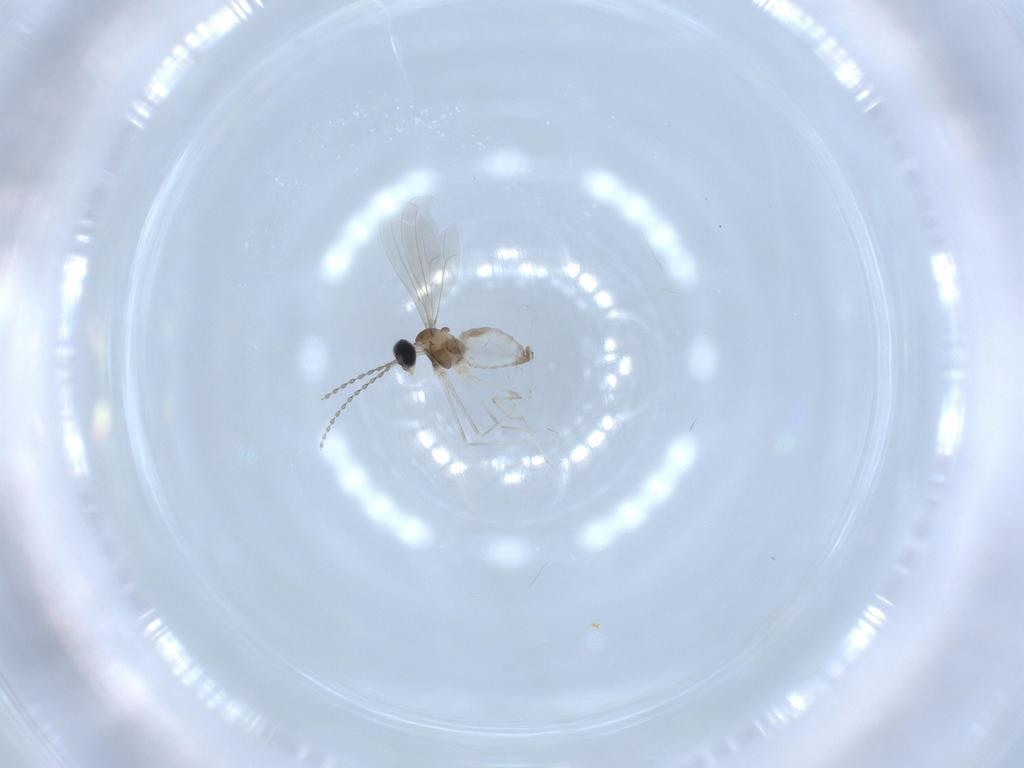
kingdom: Animalia
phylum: Arthropoda
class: Insecta
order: Diptera
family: Cecidomyiidae
